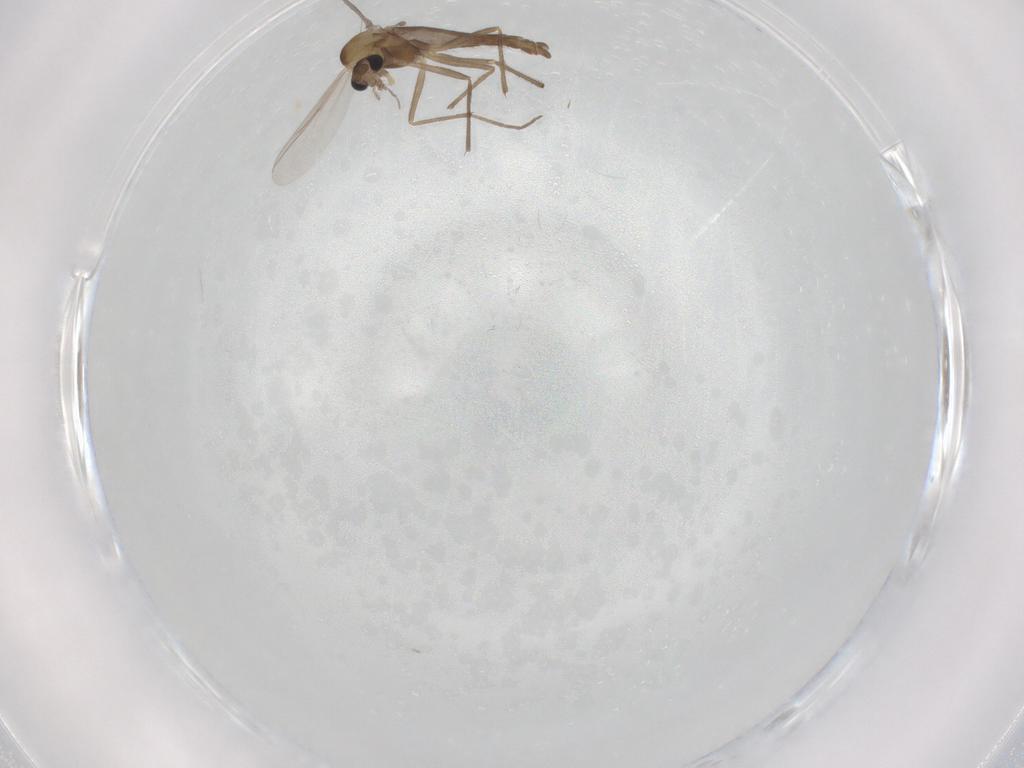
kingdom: Animalia
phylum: Arthropoda
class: Insecta
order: Diptera
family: Chironomidae
